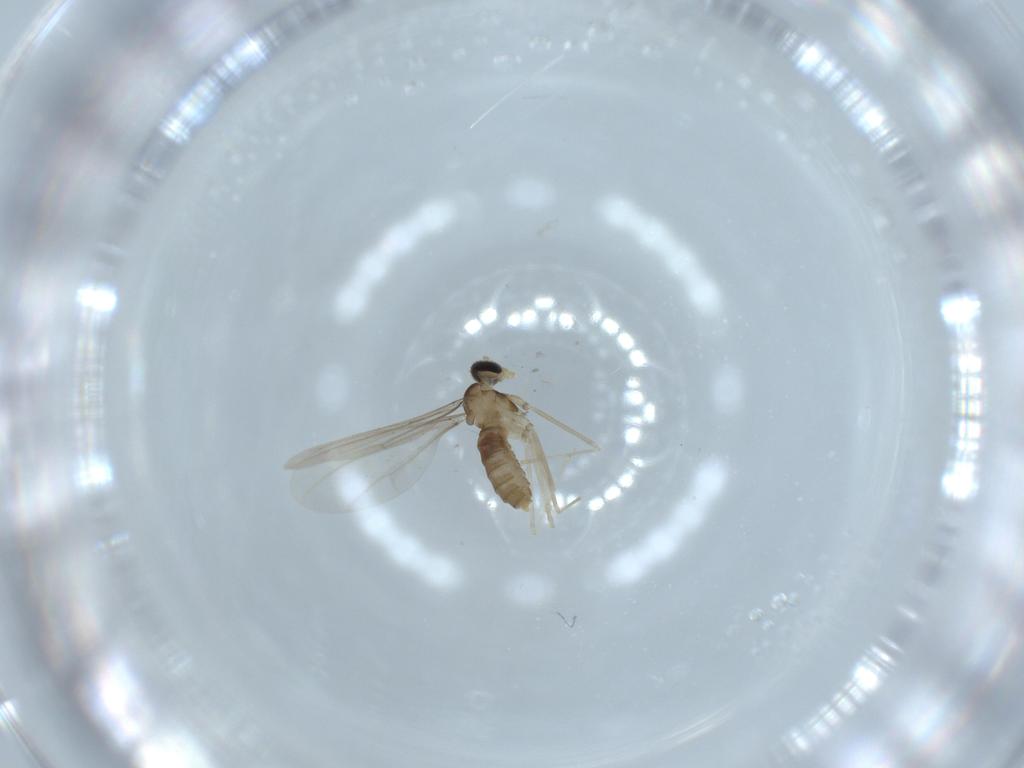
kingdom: Animalia
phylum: Arthropoda
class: Insecta
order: Diptera
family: Cecidomyiidae
